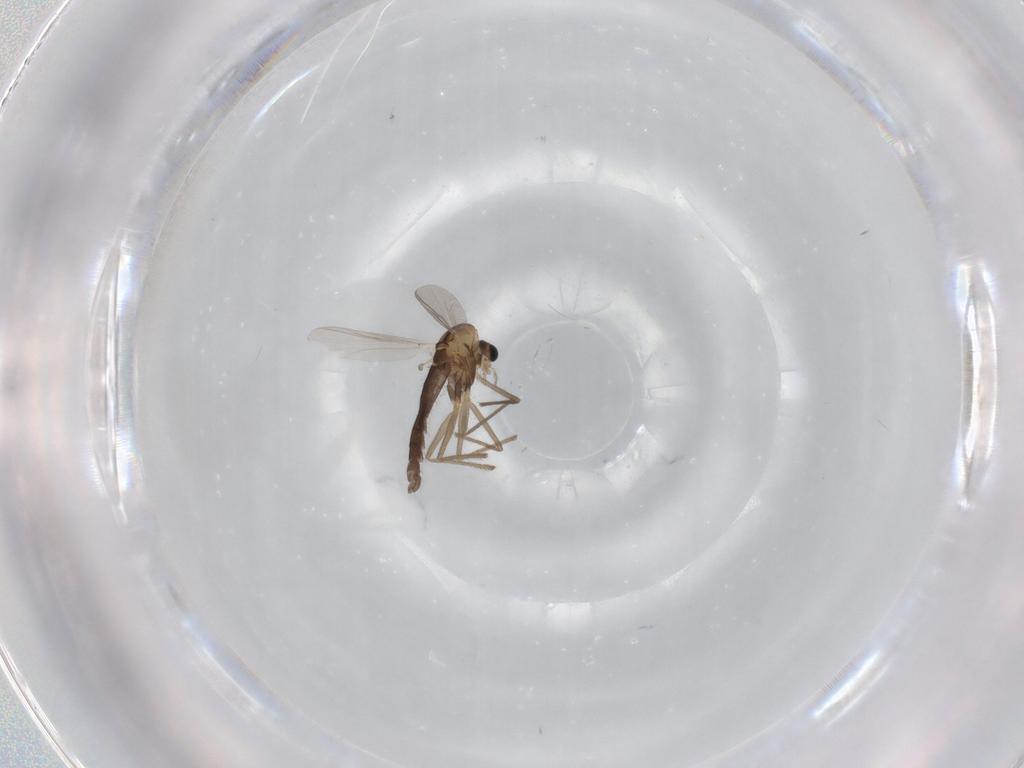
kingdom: Animalia
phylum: Arthropoda
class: Insecta
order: Diptera
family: Chironomidae
